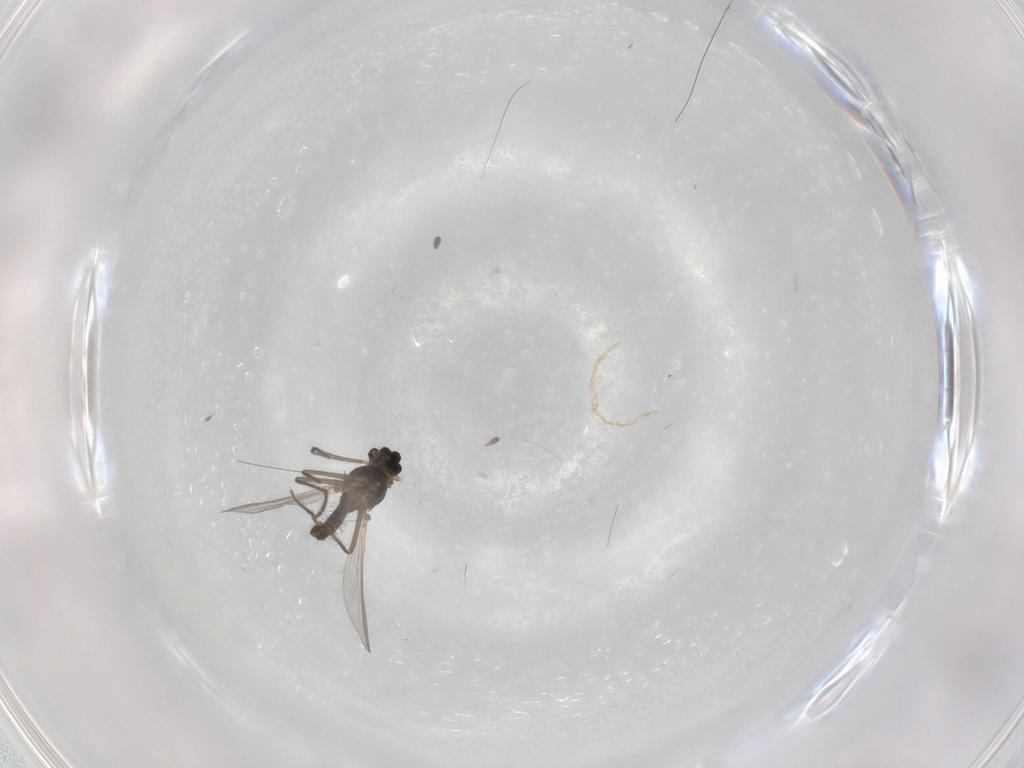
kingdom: Animalia
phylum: Arthropoda
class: Insecta
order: Diptera
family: Chironomidae
